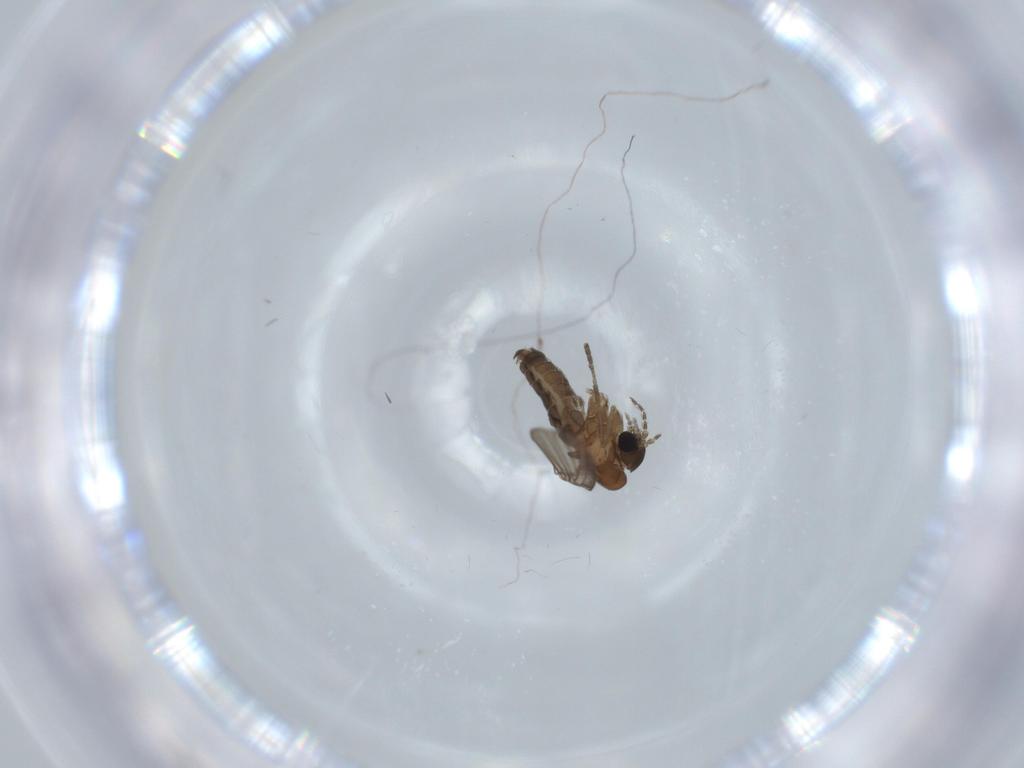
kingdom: Animalia
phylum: Arthropoda
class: Insecta
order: Diptera
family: Psychodidae
